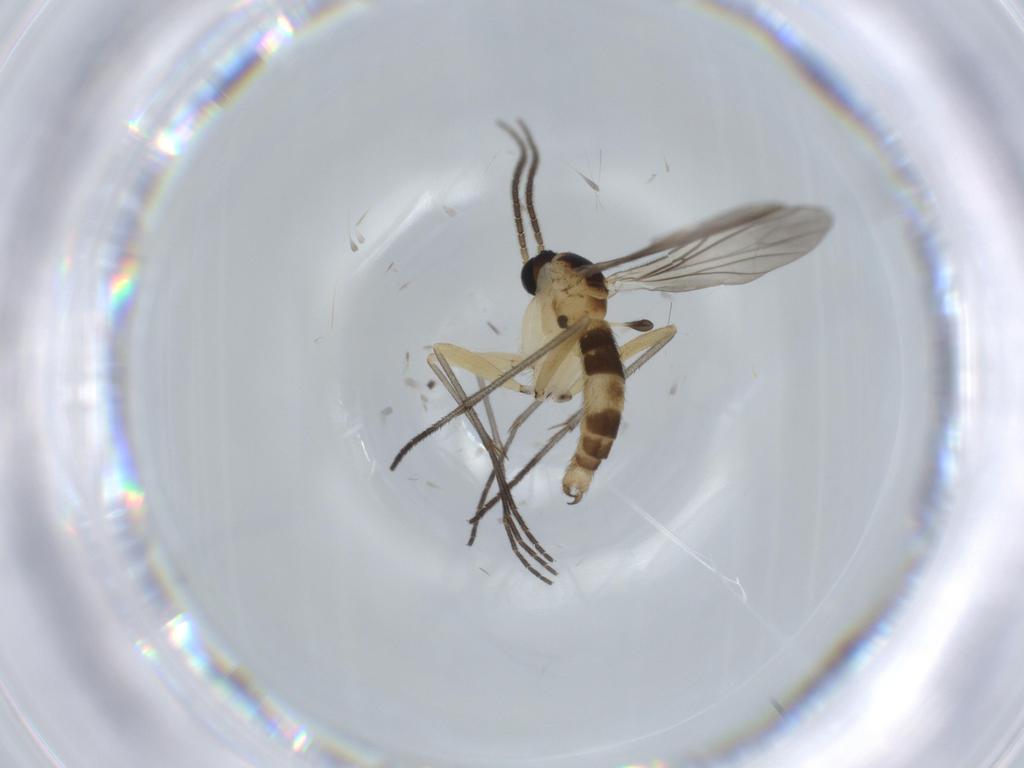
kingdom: Animalia
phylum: Arthropoda
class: Insecta
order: Diptera
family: Sciaridae
